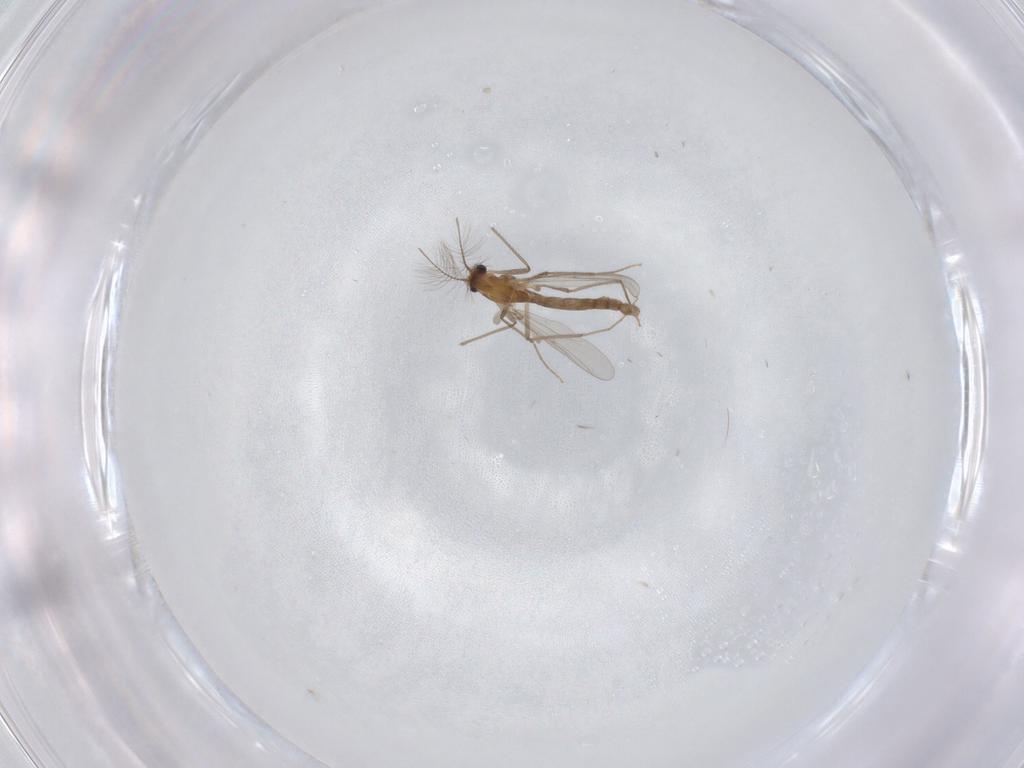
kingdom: Animalia
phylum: Arthropoda
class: Insecta
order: Diptera
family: Chironomidae
